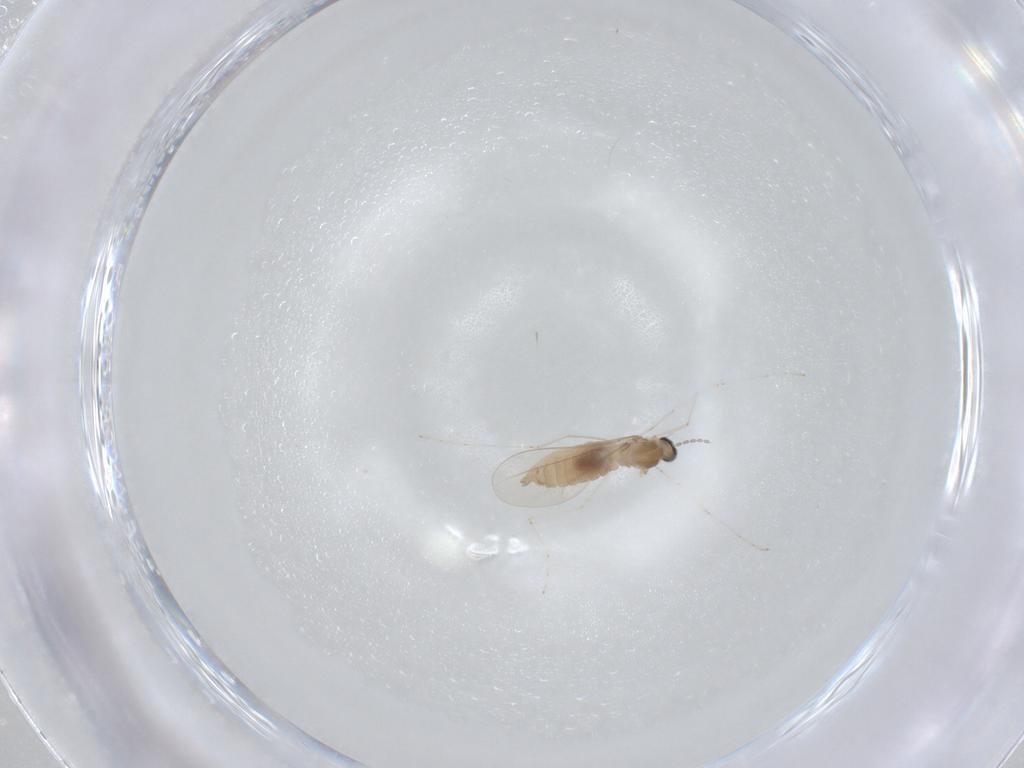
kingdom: Animalia
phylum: Arthropoda
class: Insecta
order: Diptera
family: Cecidomyiidae
